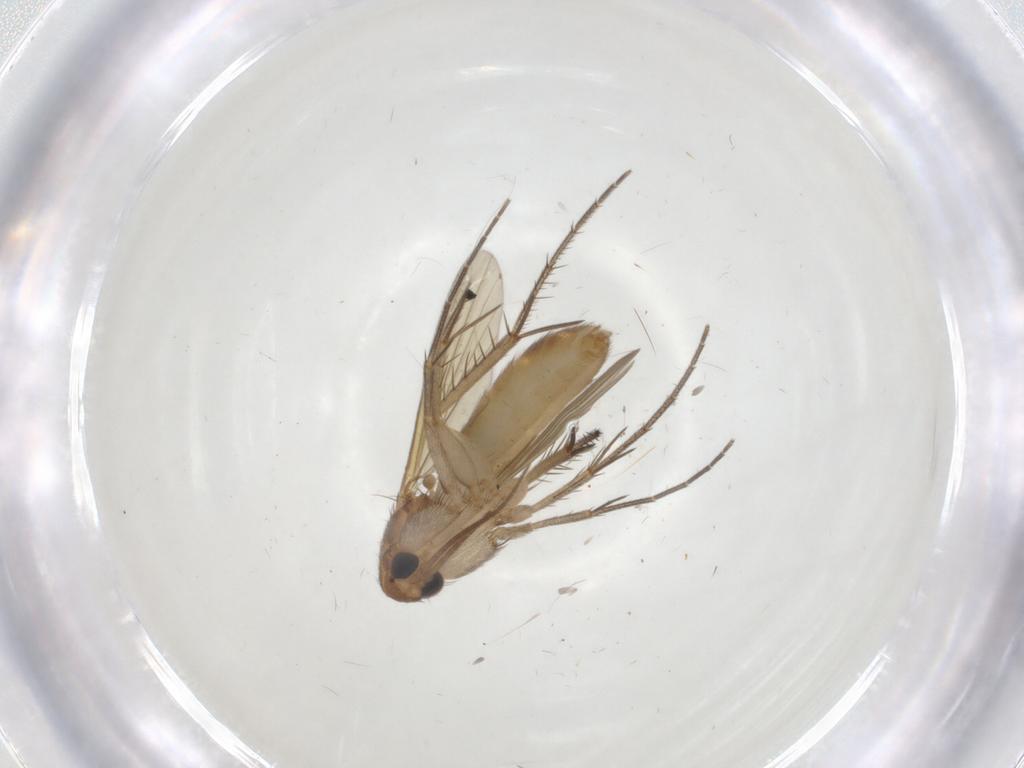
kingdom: Animalia
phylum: Arthropoda
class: Insecta
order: Diptera
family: Mycetophilidae
